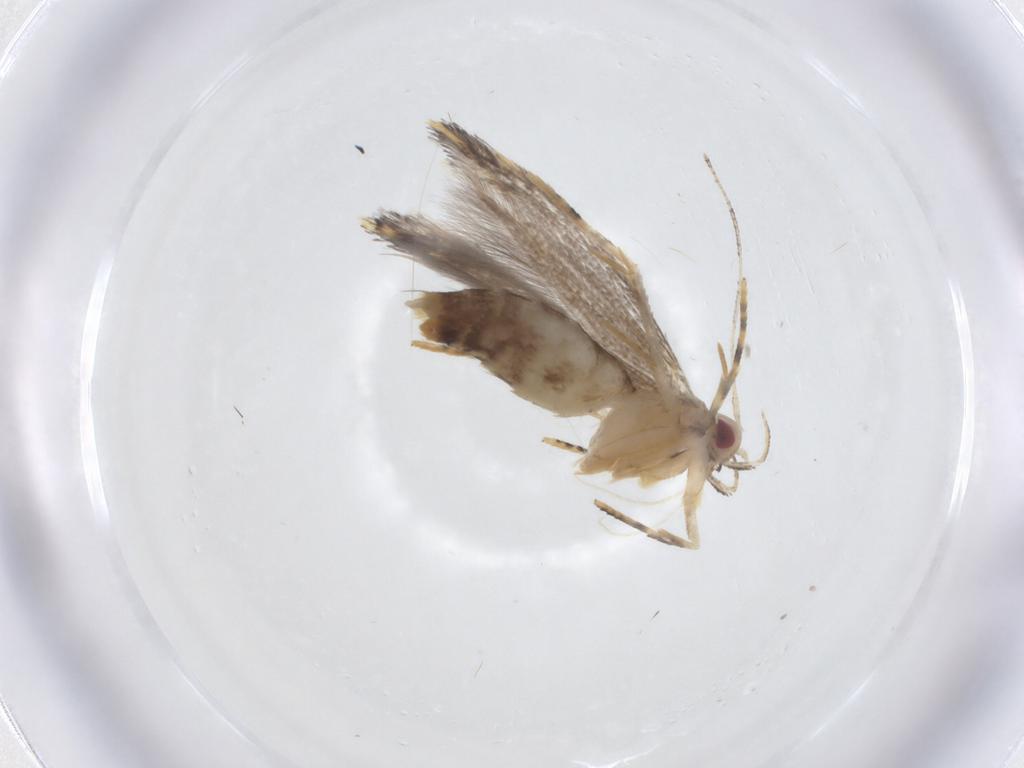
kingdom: Animalia
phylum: Arthropoda
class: Insecta
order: Lepidoptera
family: Plutellidae
